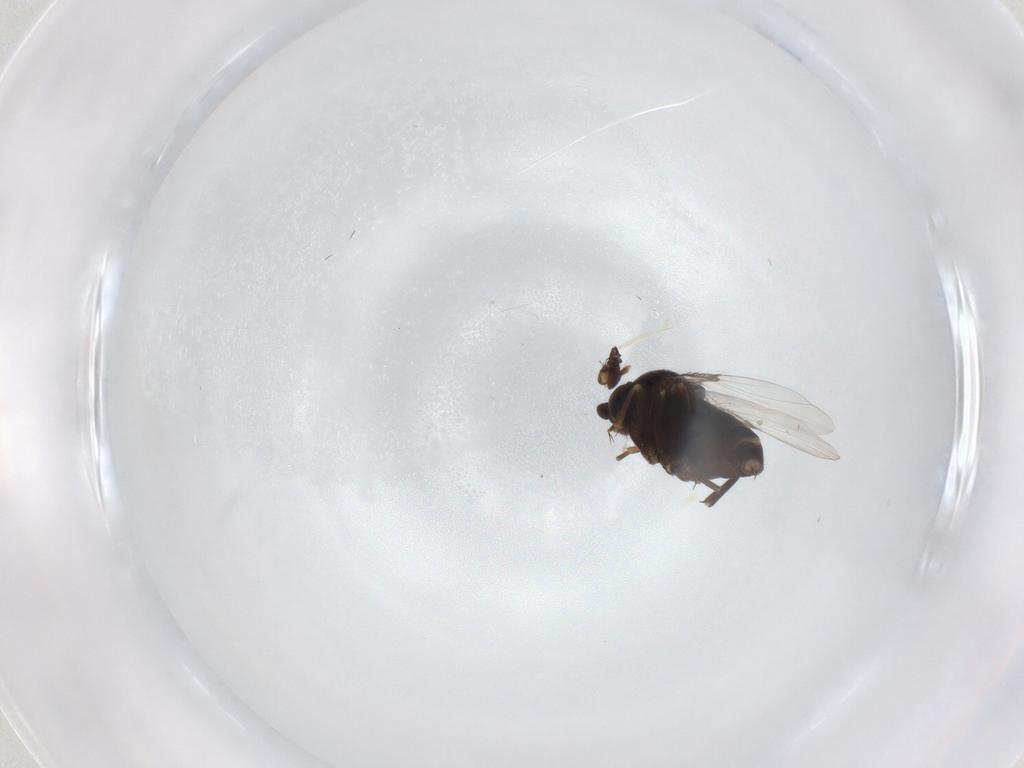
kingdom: Animalia
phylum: Arthropoda
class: Insecta
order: Diptera
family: Phoridae
